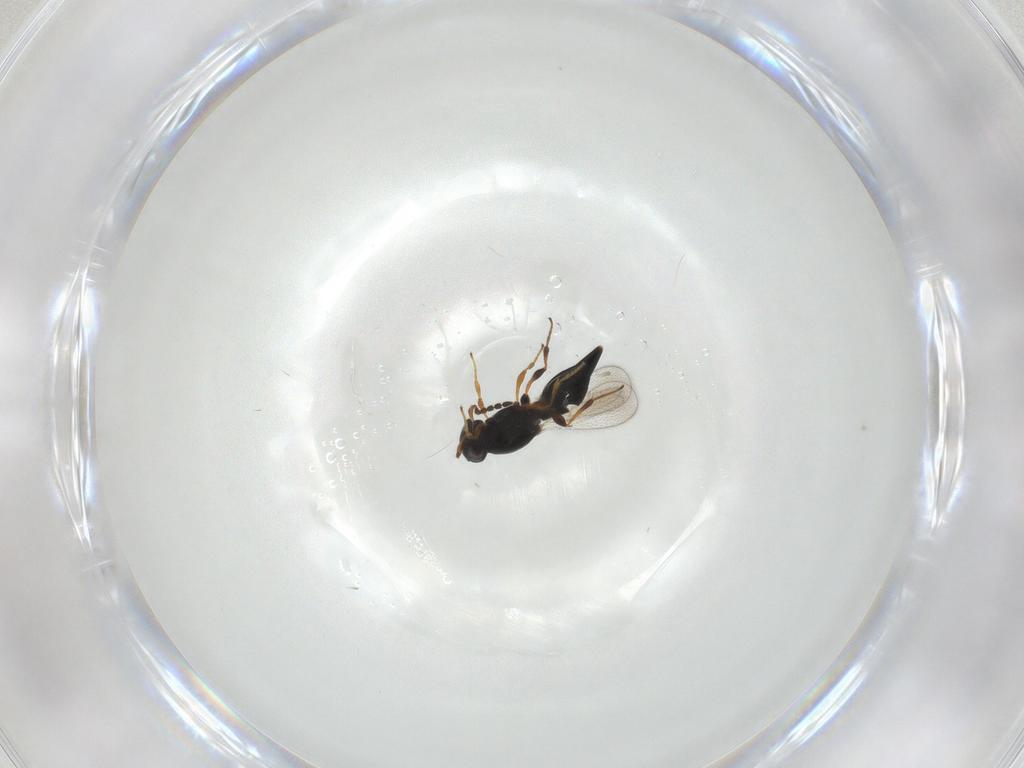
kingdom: Animalia
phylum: Arthropoda
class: Insecta
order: Hymenoptera
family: Platygastridae
